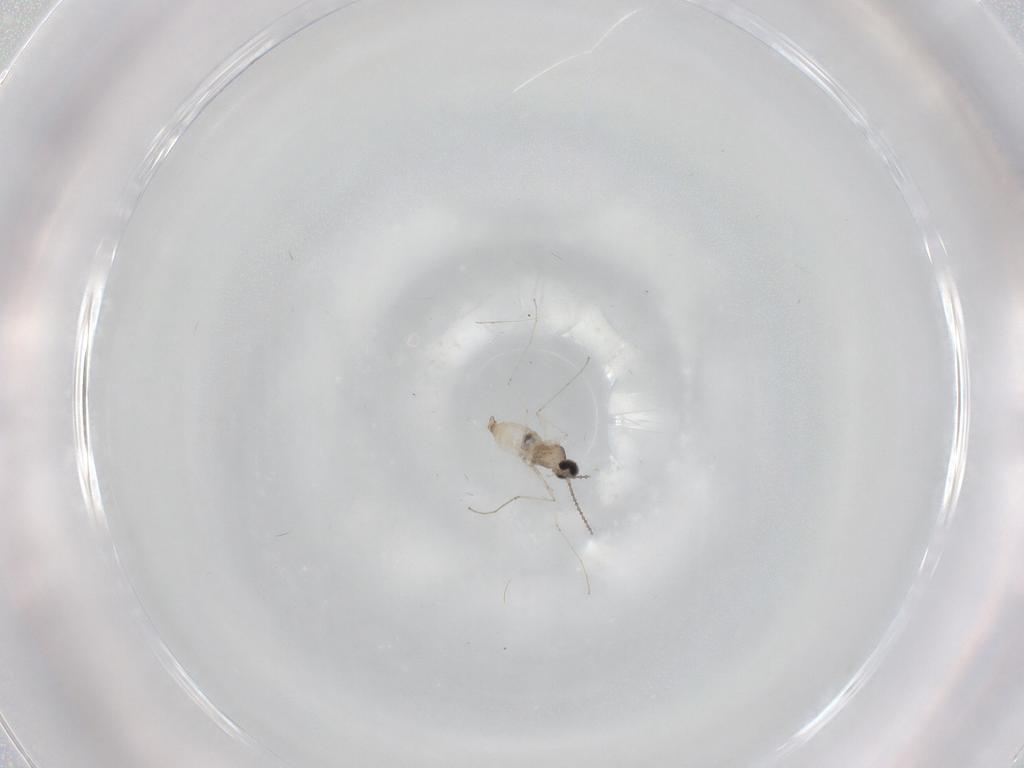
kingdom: Animalia
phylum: Arthropoda
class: Insecta
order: Diptera
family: Cecidomyiidae
